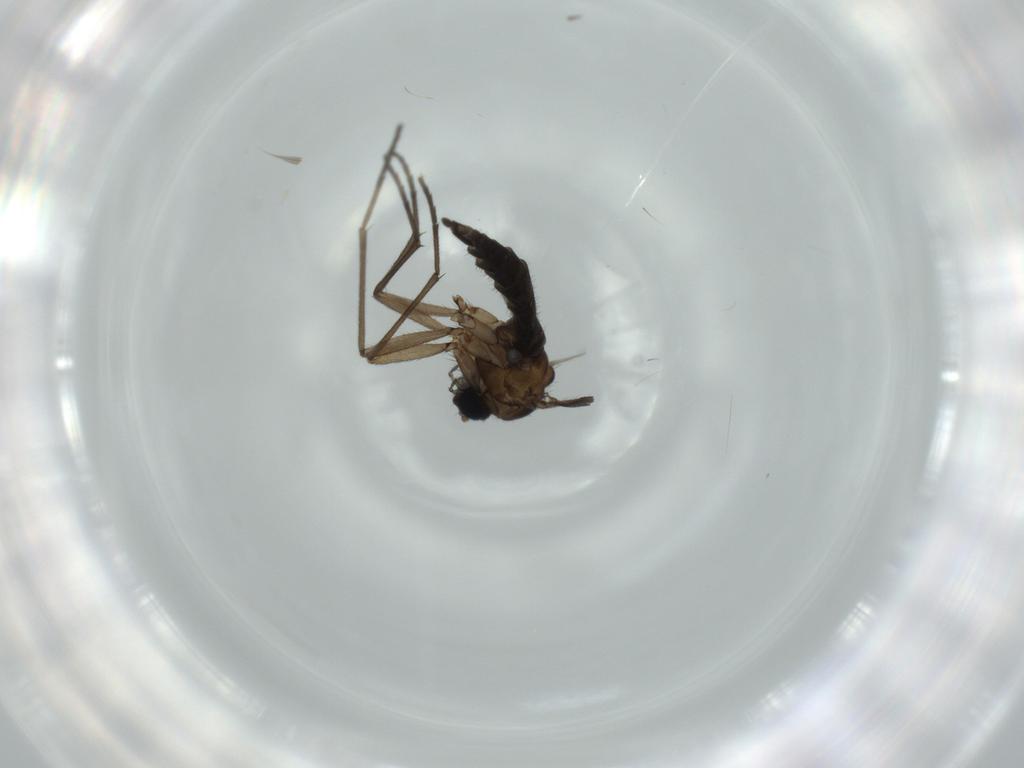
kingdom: Animalia
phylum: Arthropoda
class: Insecta
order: Diptera
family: Sciaridae
